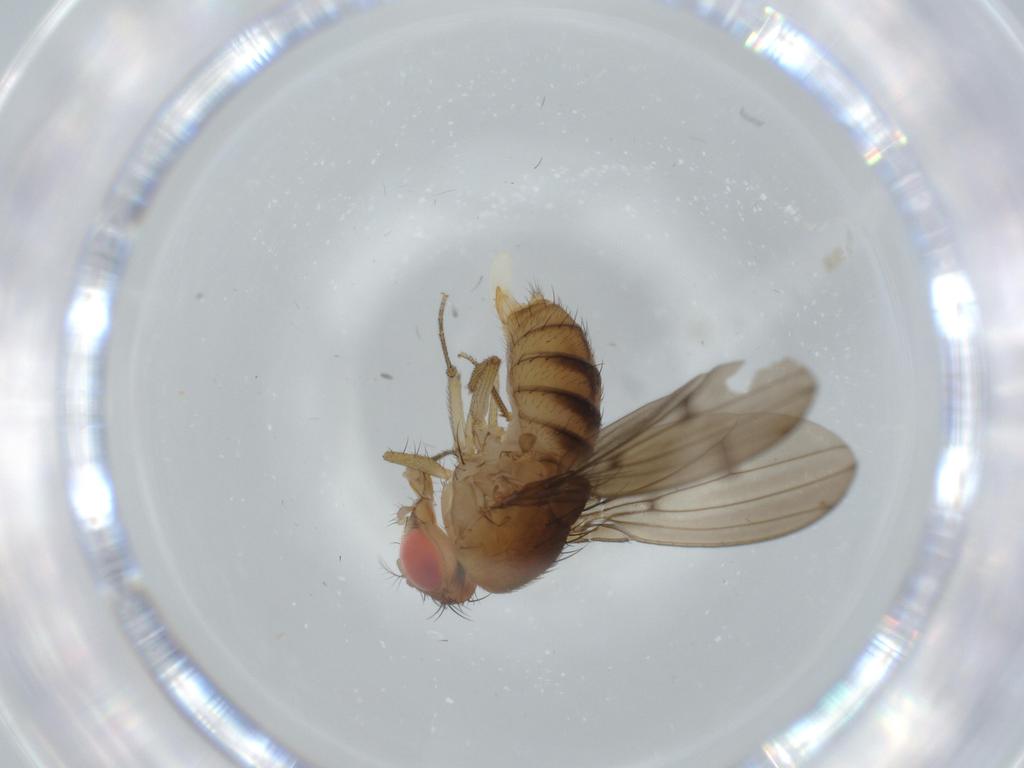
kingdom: Animalia
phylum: Arthropoda
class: Insecta
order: Diptera
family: Drosophilidae
